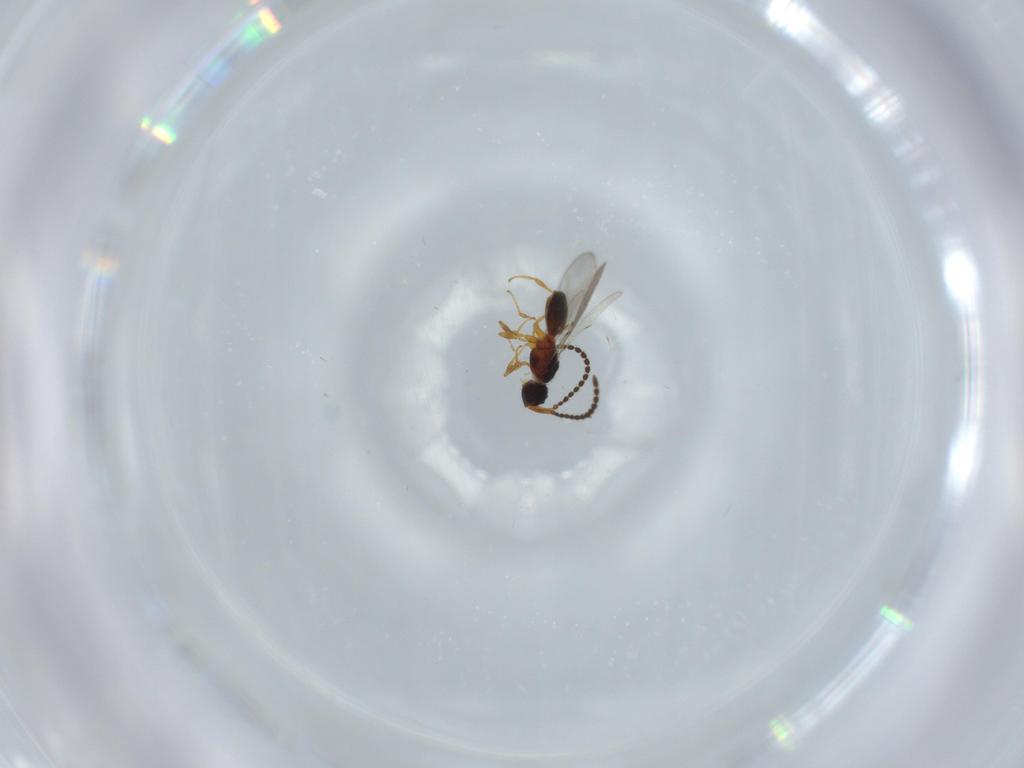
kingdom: Animalia
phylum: Arthropoda
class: Insecta
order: Hymenoptera
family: Diapriidae
